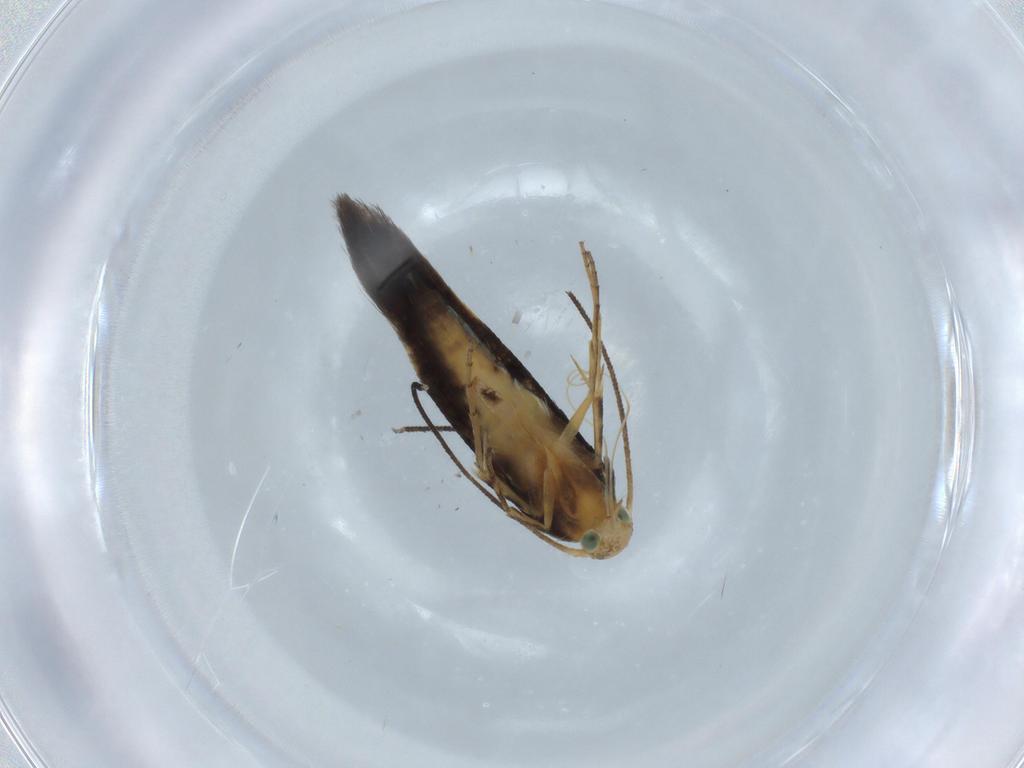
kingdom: Animalia
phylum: Arthropoda
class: Insecta
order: Lepidoptera
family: Heliodinidae
